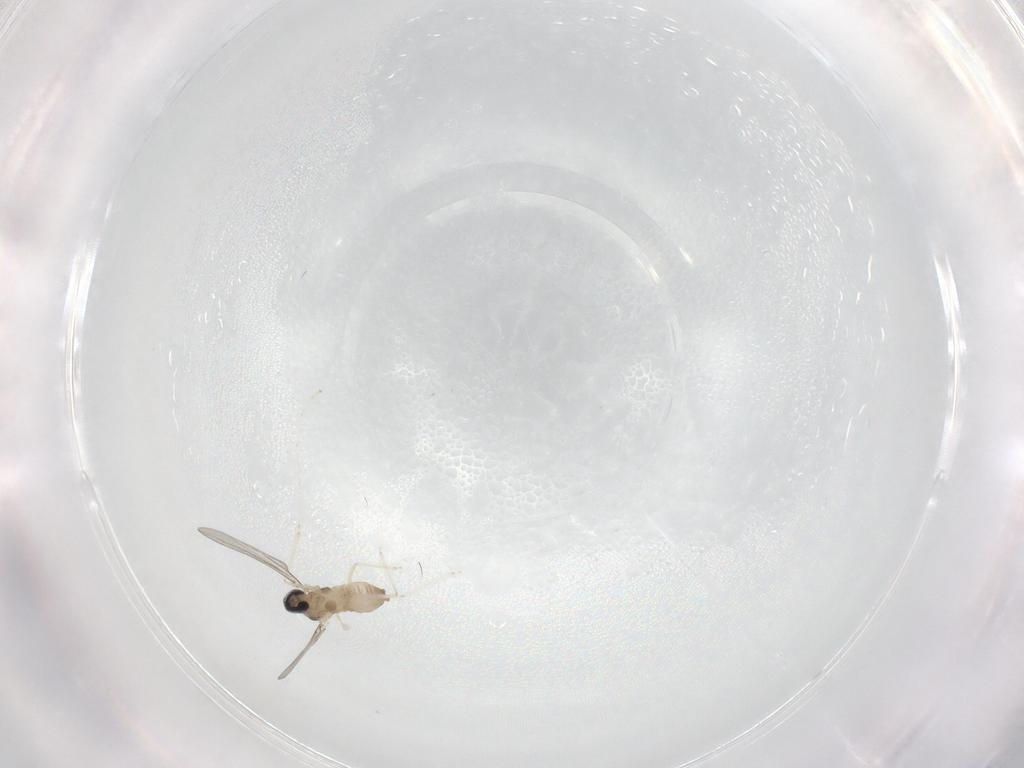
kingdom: Animalia
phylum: Arthropoda
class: Insecta
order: Diptera
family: Cecidomyiidae
